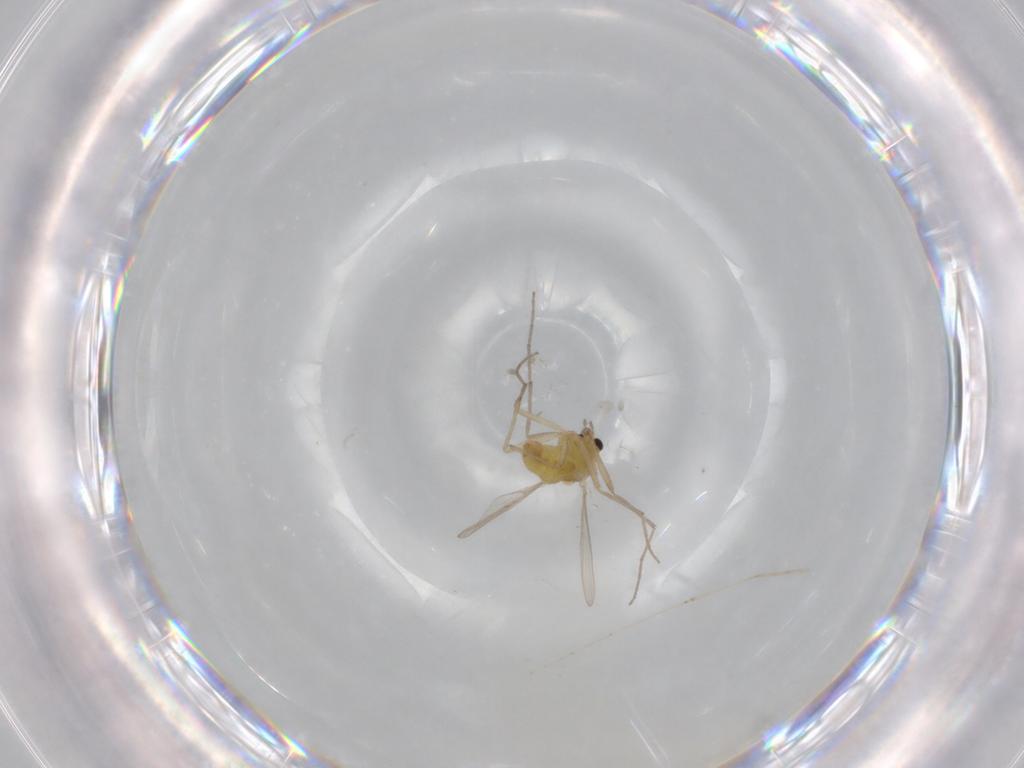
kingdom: Animalia
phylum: Arthropoda
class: Insecta
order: Diptera
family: Chironomidae
